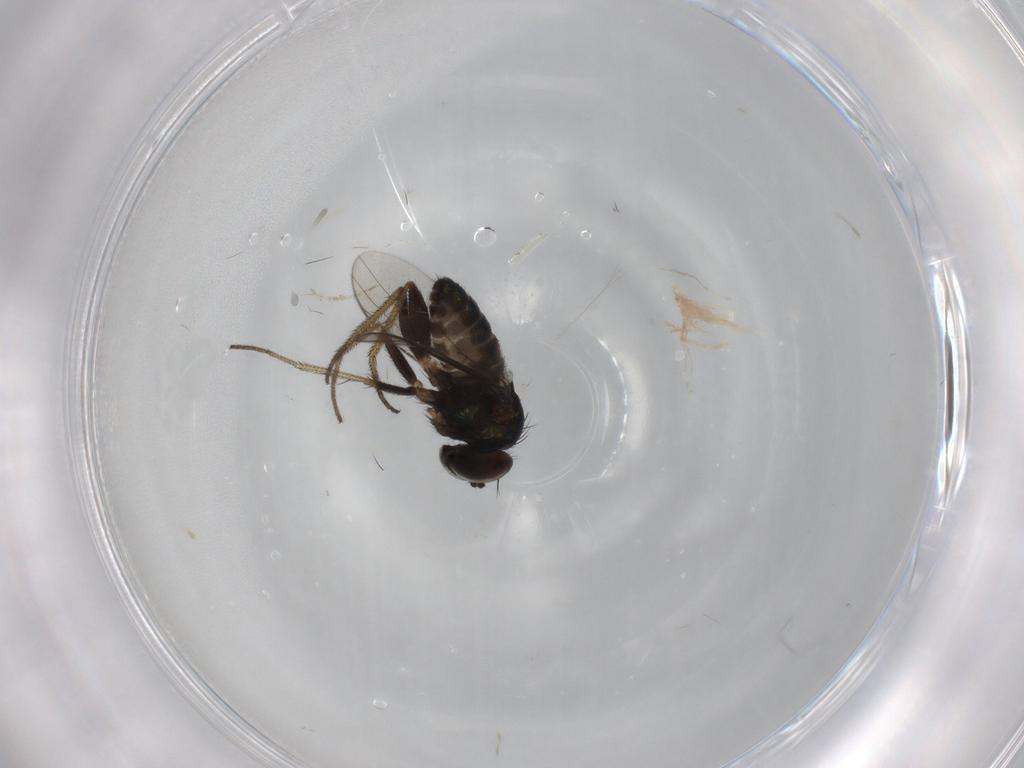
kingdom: Animalia
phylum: Arthropoda
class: Insecta
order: Diptera
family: Dolichopodidae
